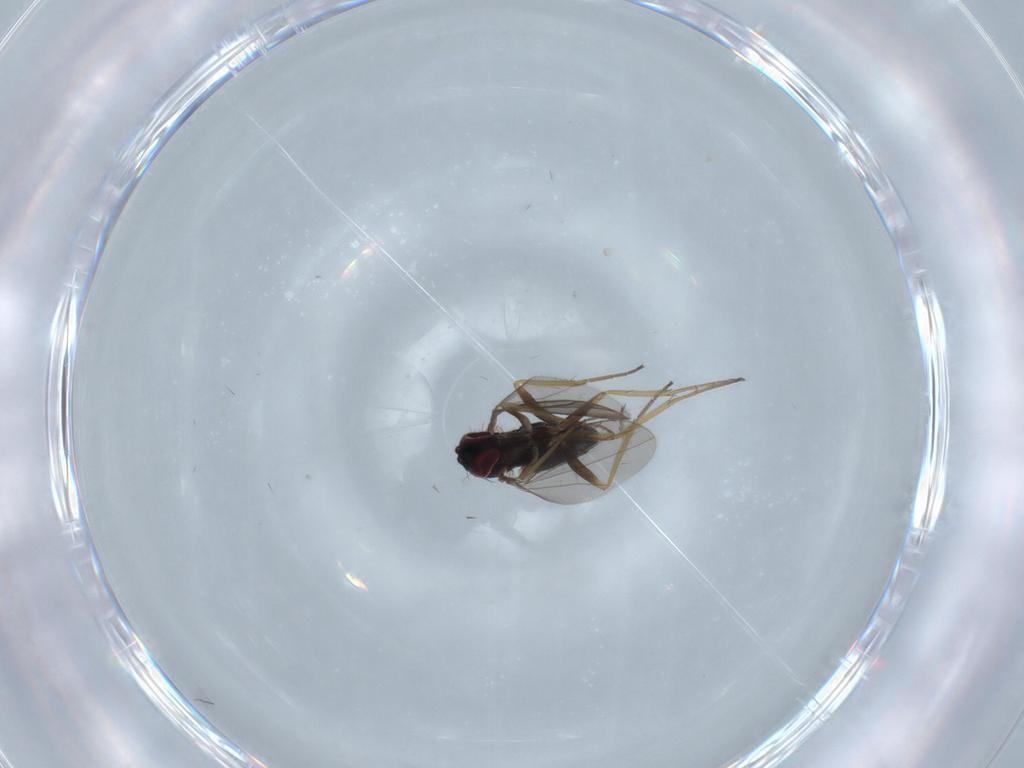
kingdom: Animalia
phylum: Arthropoda
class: Insecta
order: Diptera
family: Dolichopodidae
